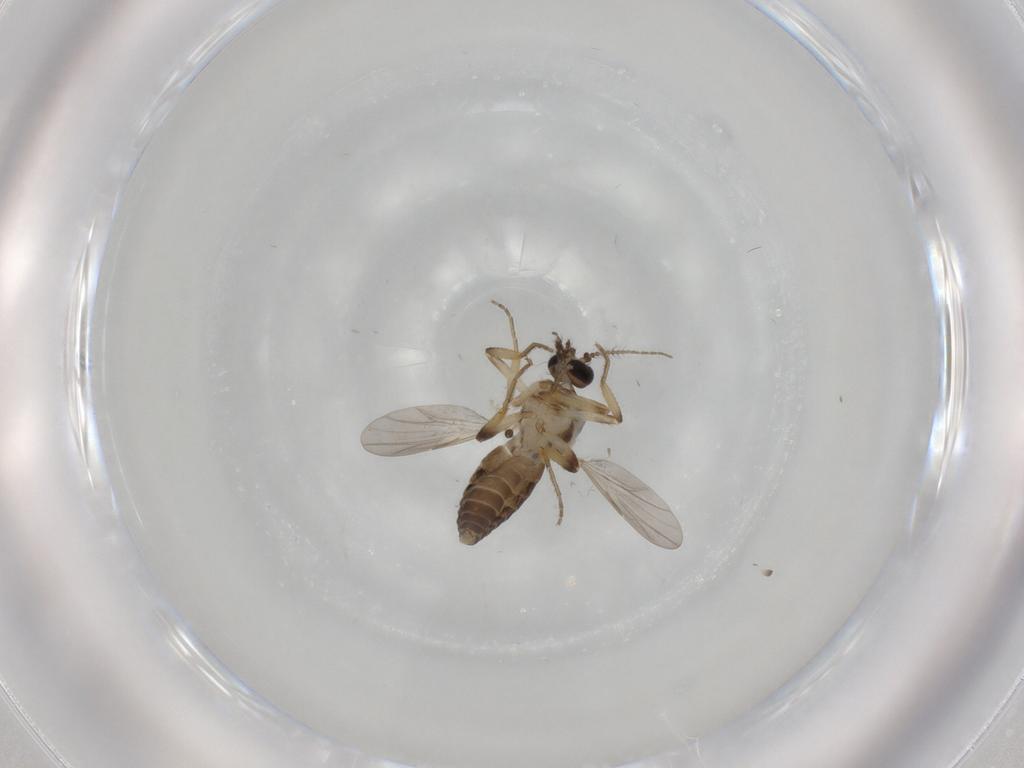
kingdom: Animalia
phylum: Arthropoda
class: Insecta
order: Diptera
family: Ceratopogonidae
